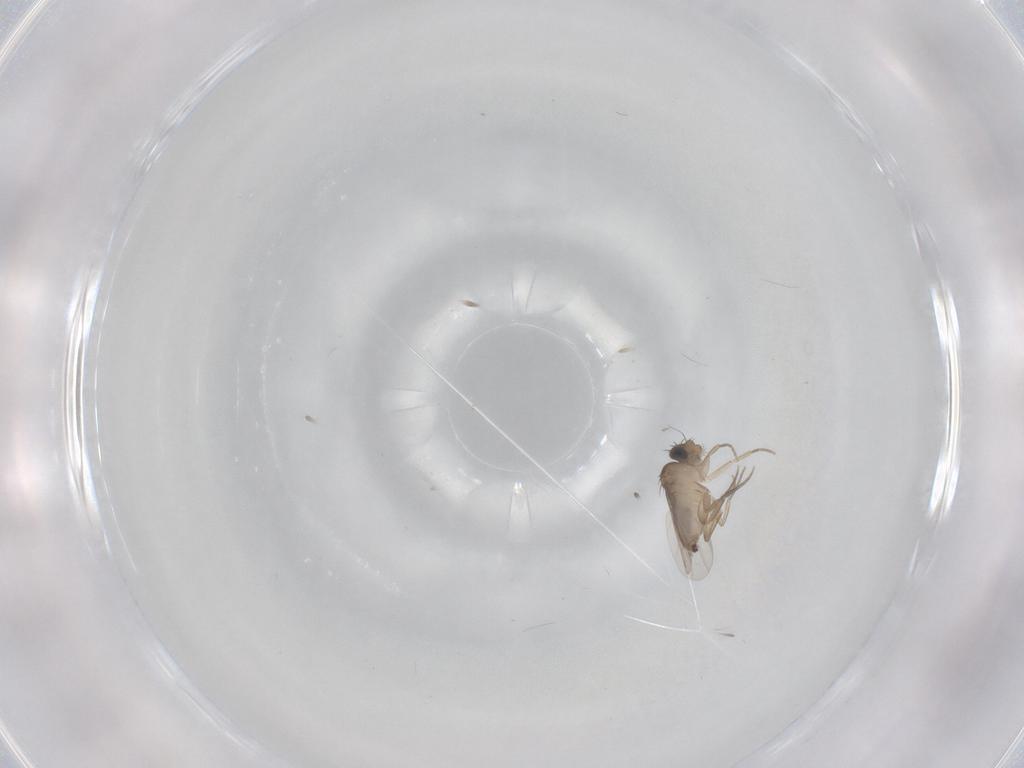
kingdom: Animalia
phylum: Arthropoda
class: Insecta
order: Diptera
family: Phoridae
